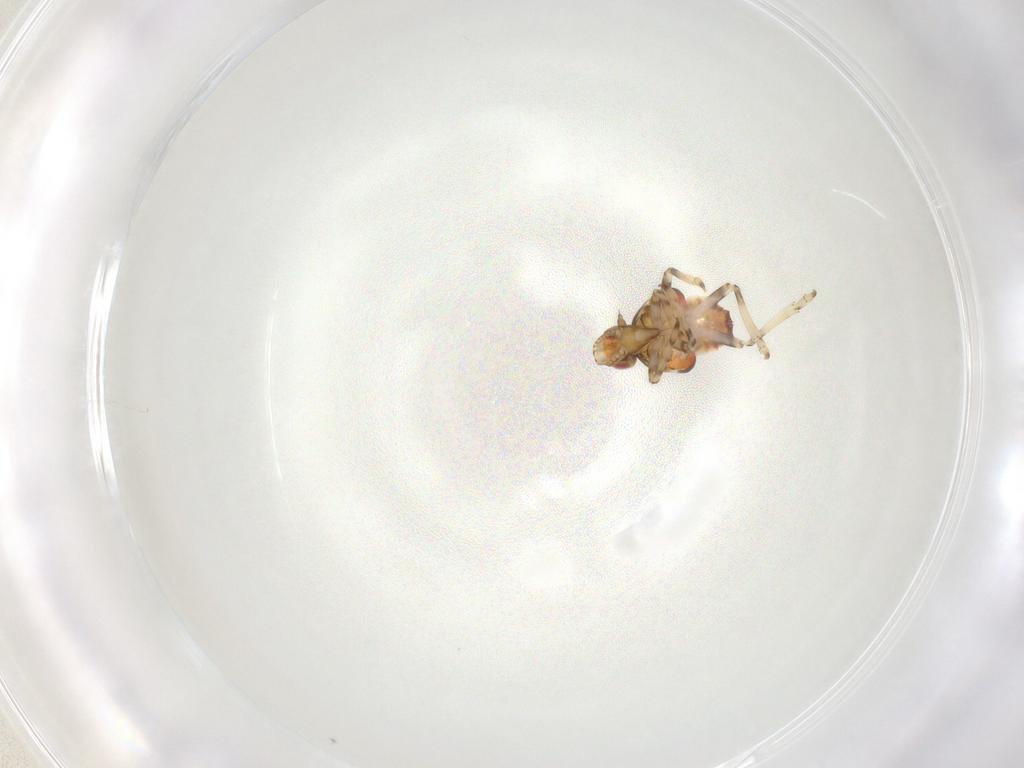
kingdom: Animalia
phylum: Arthropoda
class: Insecta
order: Hemiptera
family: Tropiduchidae
